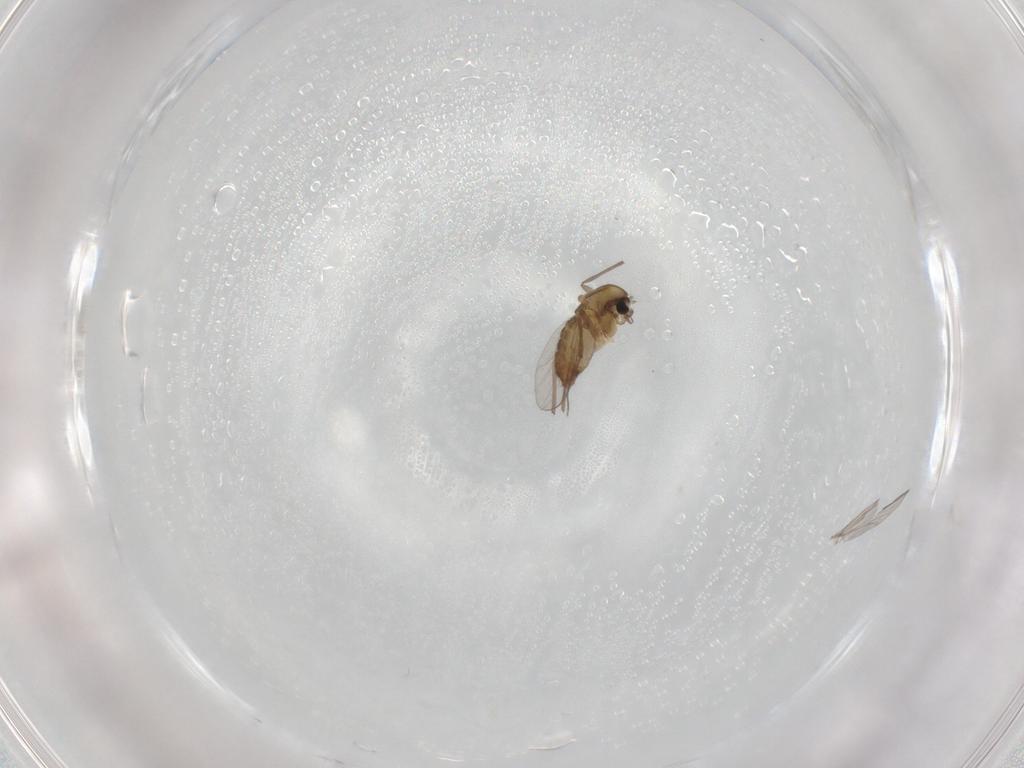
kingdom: Animalia
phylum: Arthropoda
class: Insecta
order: Diptera
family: Chironomidae
